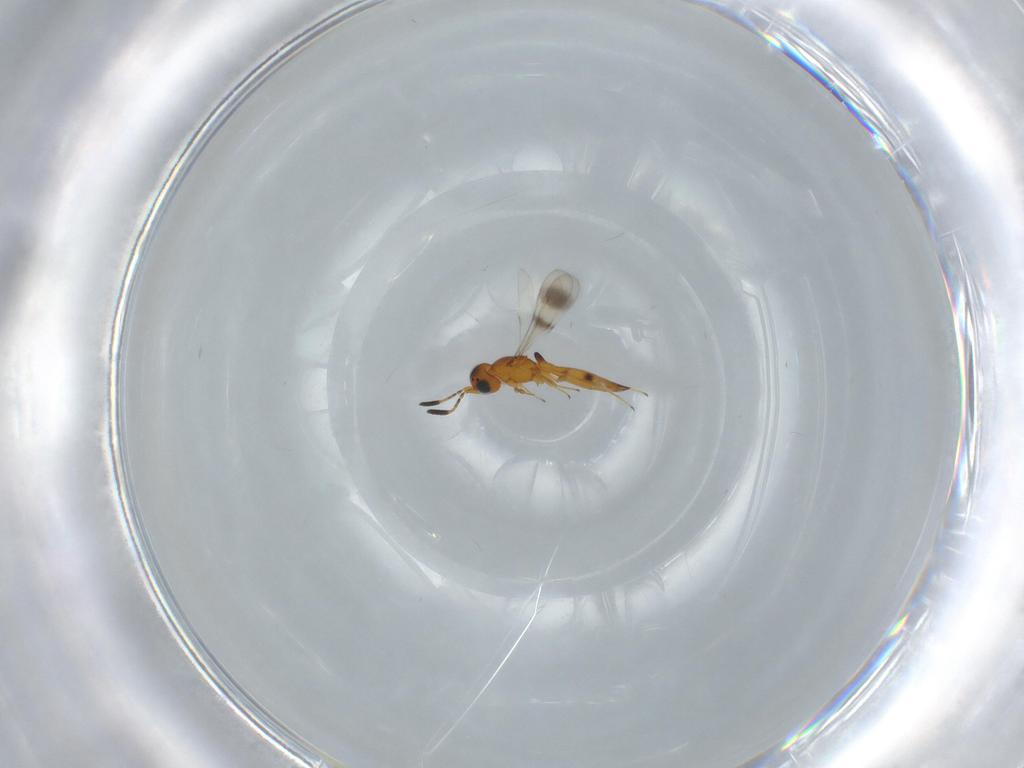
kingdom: Animalia
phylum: Arthropoda
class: Insecta
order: Hymenoptera
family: Scelionidae
